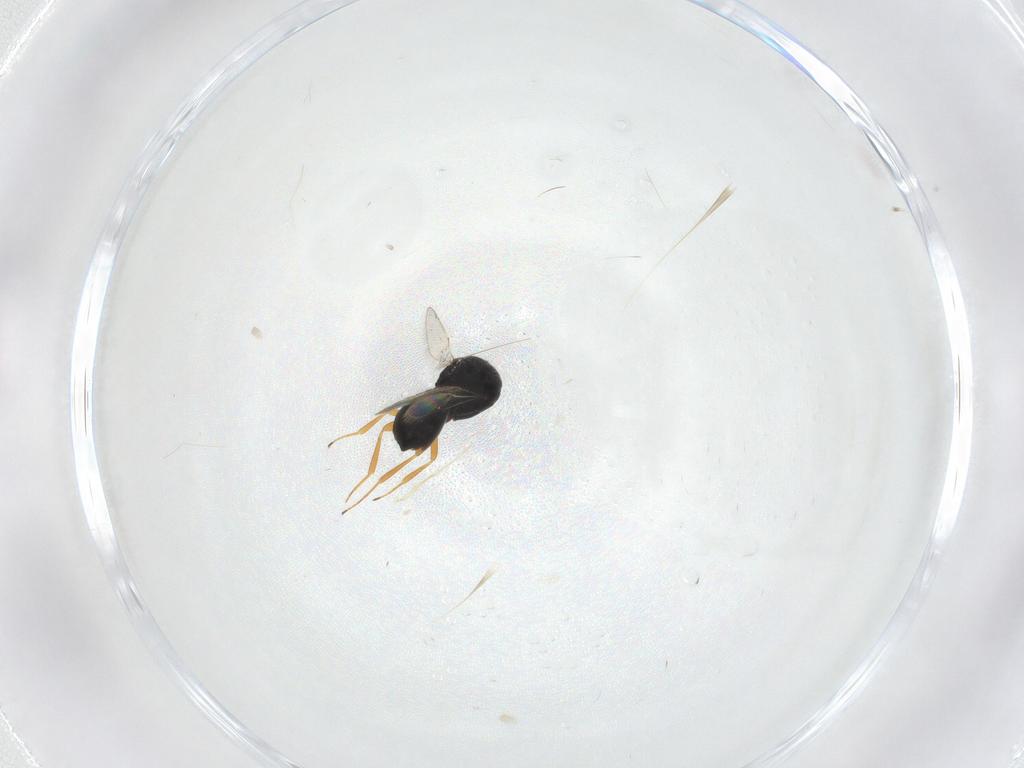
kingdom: Animalia
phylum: Arthropoda
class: Insecta
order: Hymenoptera
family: Scelionidae
